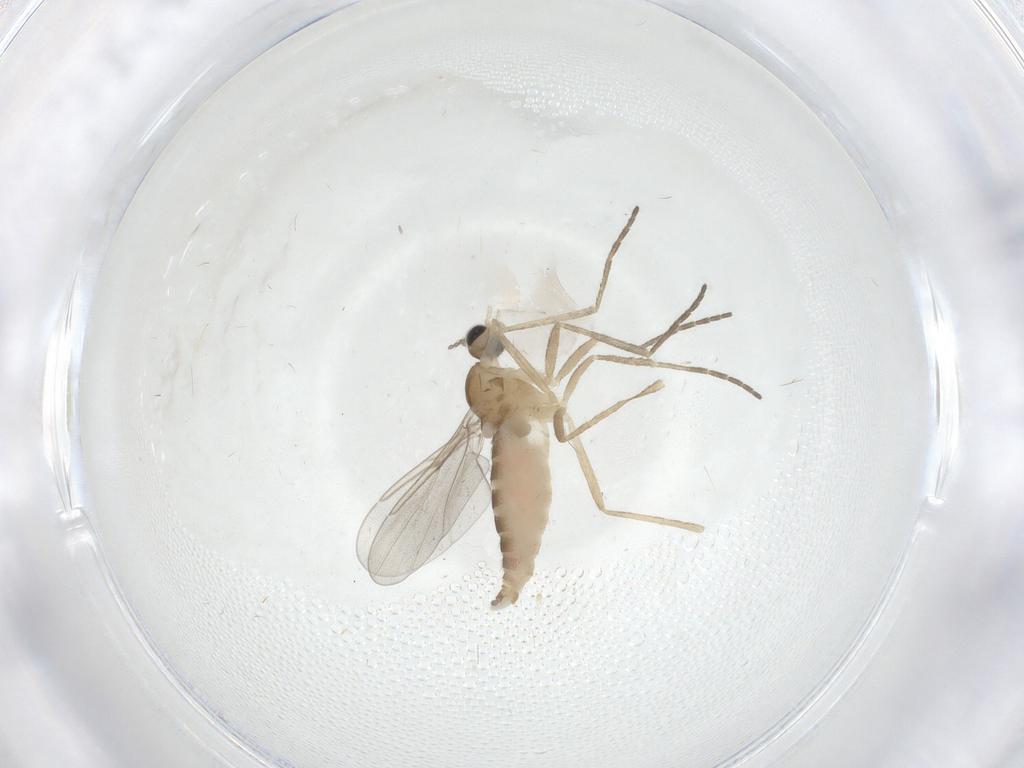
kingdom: Animalia
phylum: Arthropoda
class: Insecta
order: Diptera
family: Cecidomyiidae
